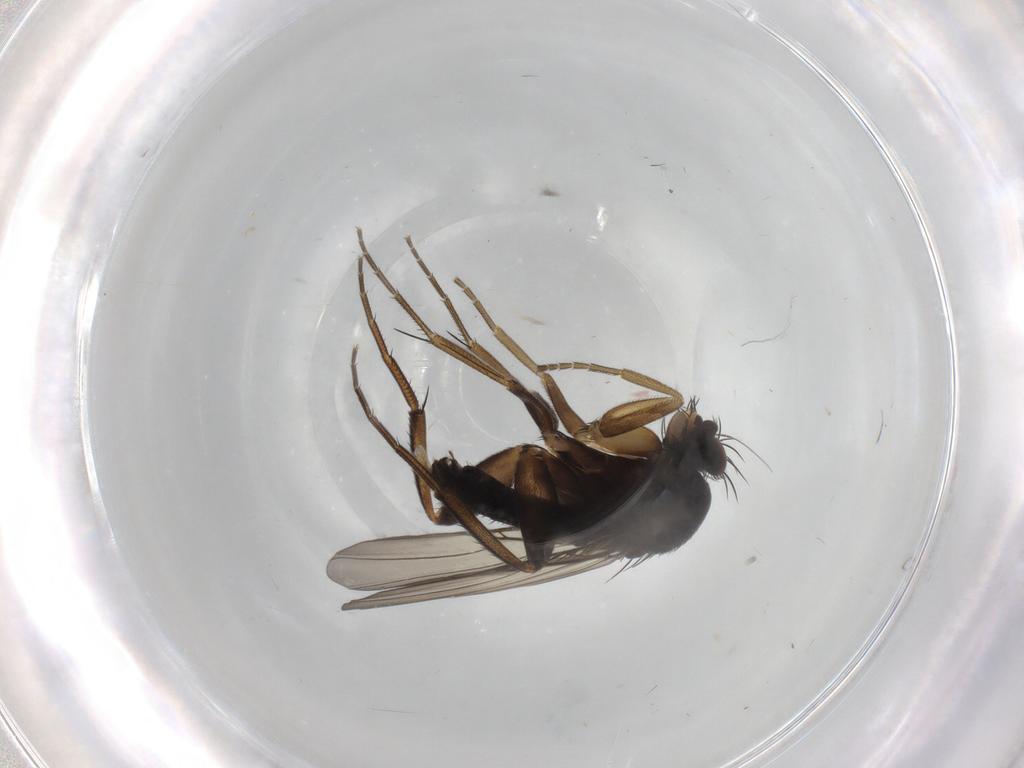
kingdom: Animalia
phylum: Arthropoda
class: Insecta
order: Diptera
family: Phoridae
